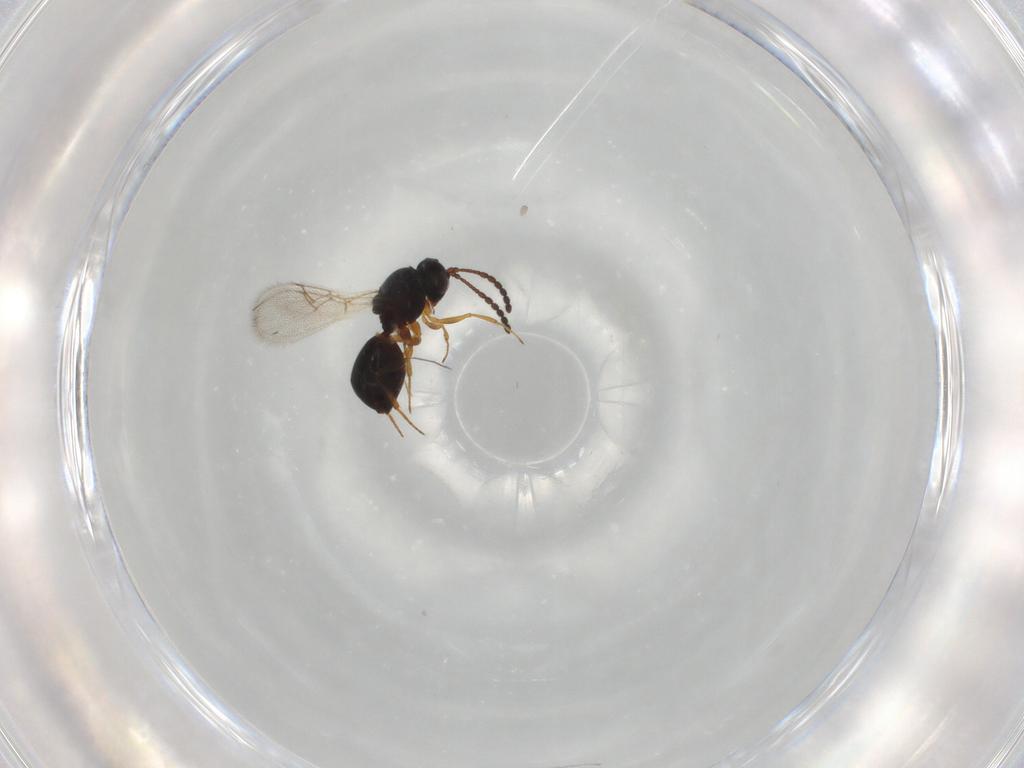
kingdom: Animalia
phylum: Arthropoda
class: Insecta
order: Hymenoptera
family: Figitidae
